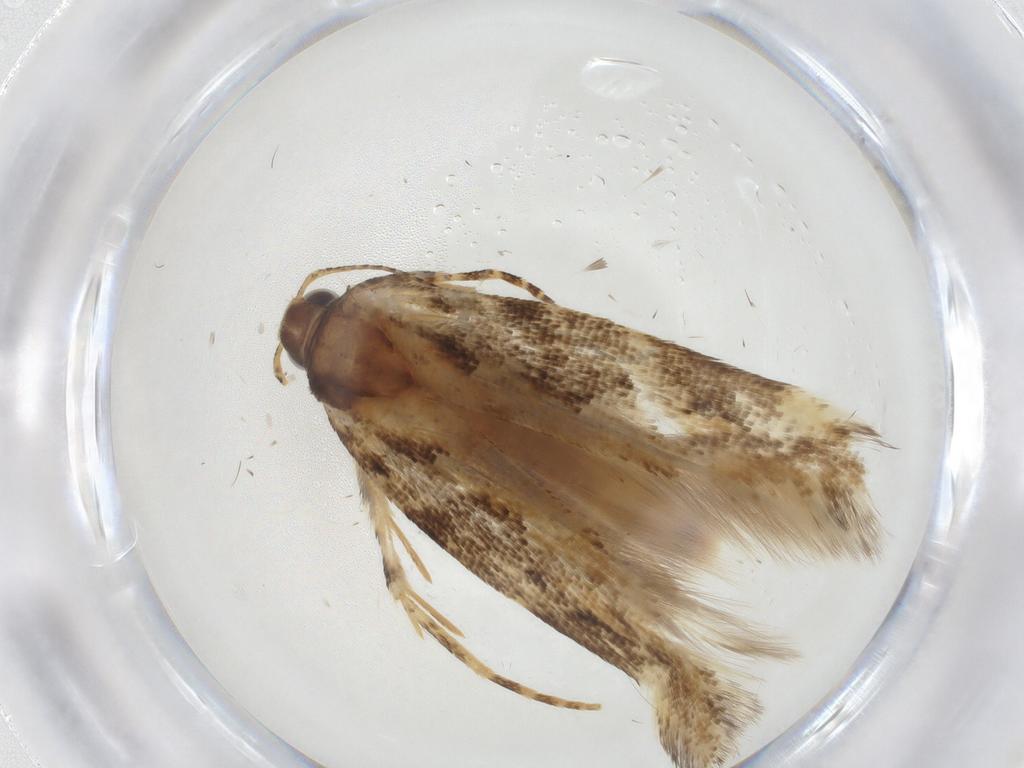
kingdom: Animalia
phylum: Arthropoda
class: Insecta
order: Lepidoptera
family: Gelechiidae
